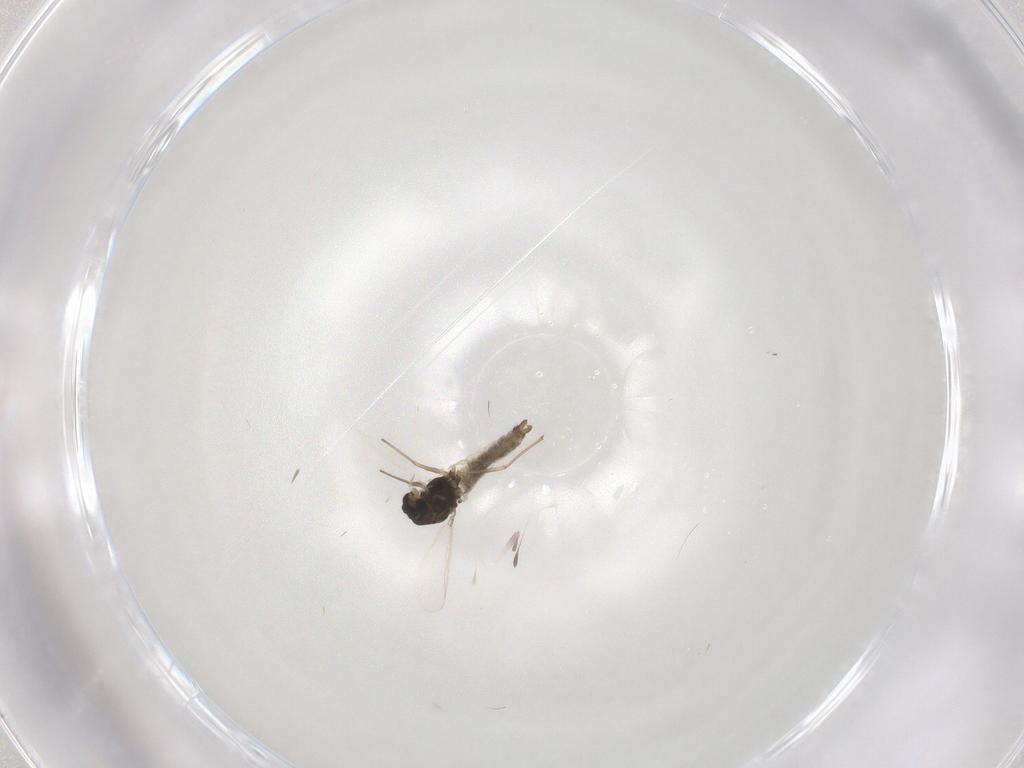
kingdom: Animalia
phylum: Arthropoda
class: Insecta
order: Diptera
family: Chironomidae
